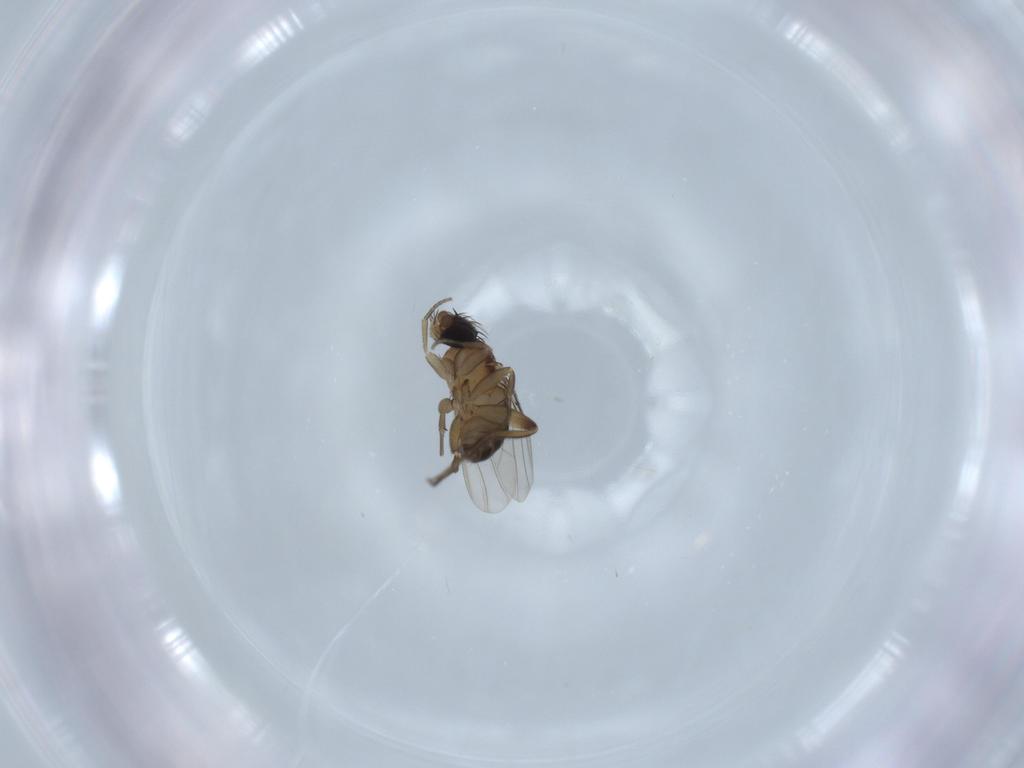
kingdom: Animalia
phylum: Arthropoda
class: Insecta
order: Diptera
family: Phoridae
